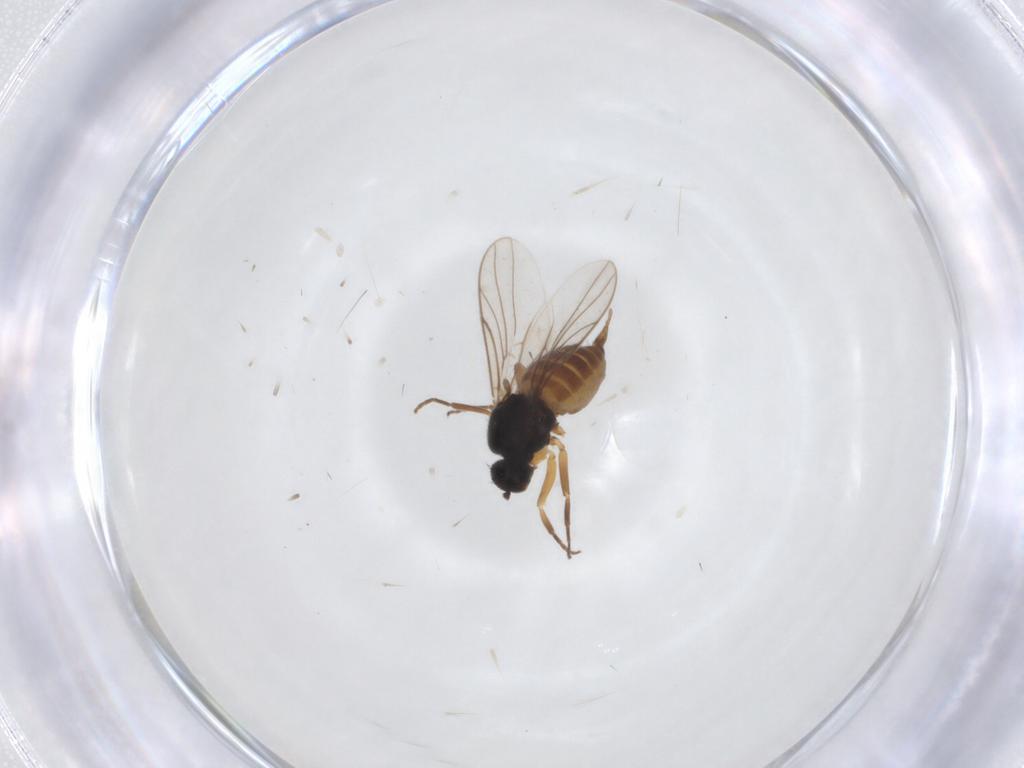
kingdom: Animalia
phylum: Arthropoda
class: Insecta
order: Diptera
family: Hybotidae
